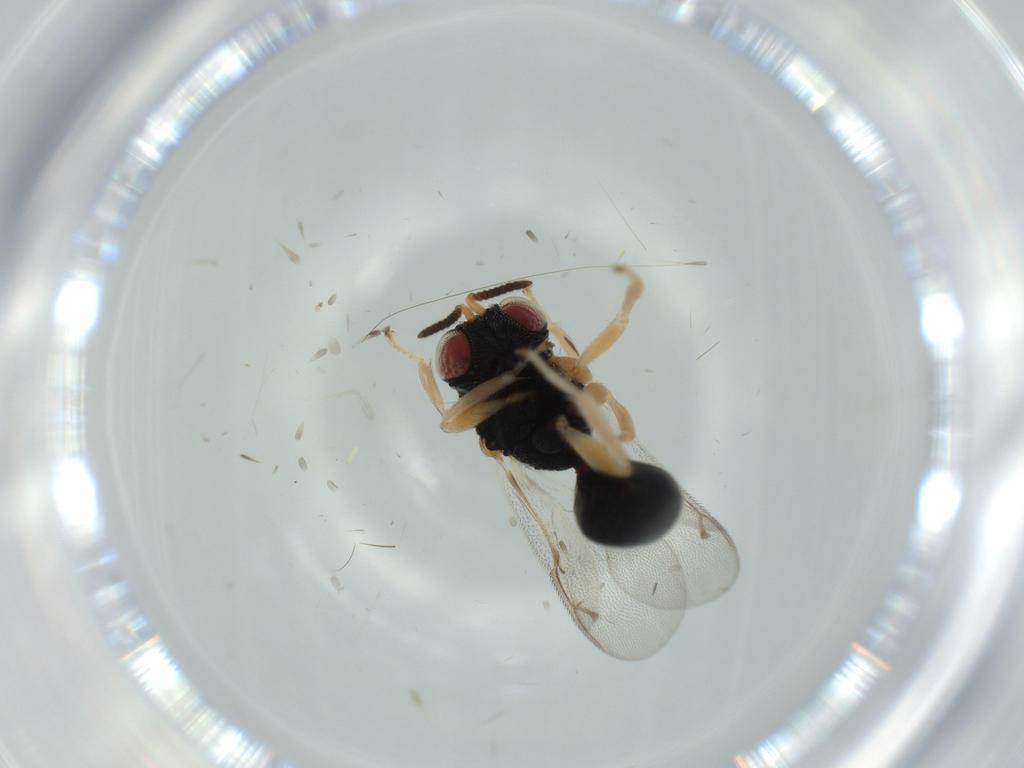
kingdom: Animalia
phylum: Arthropoda
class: Insecta
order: Hymenoptera
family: Eurytomidae
